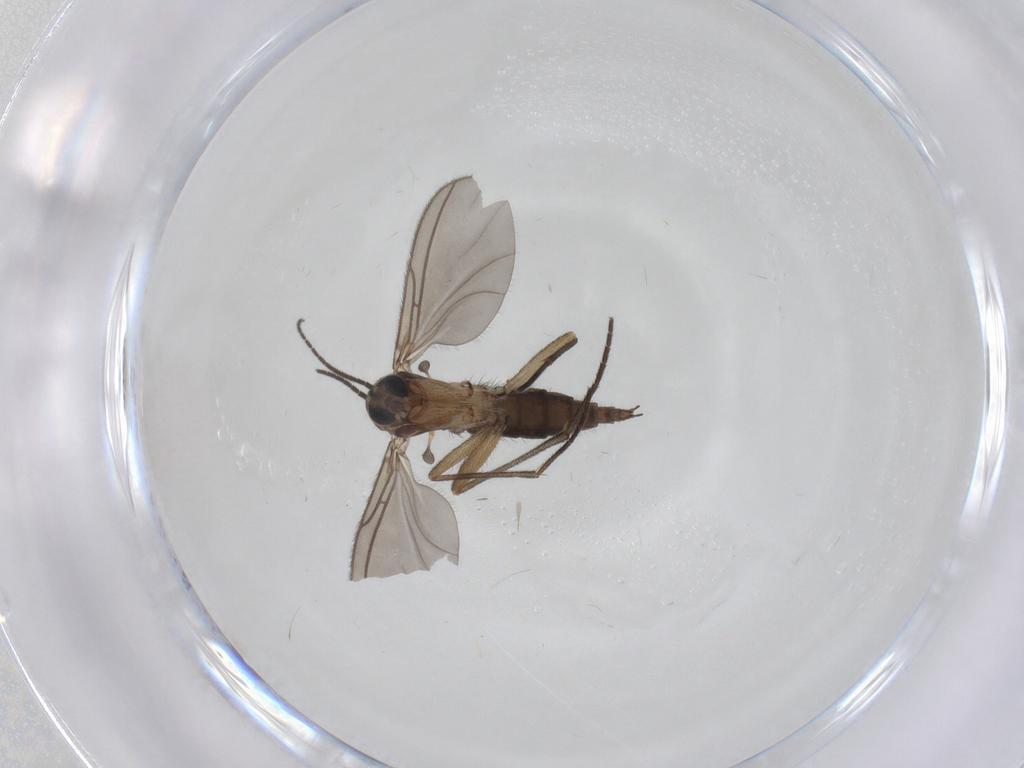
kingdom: Animalia
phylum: Arthropoda
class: Insecta
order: Diptera
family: Sciaridae
